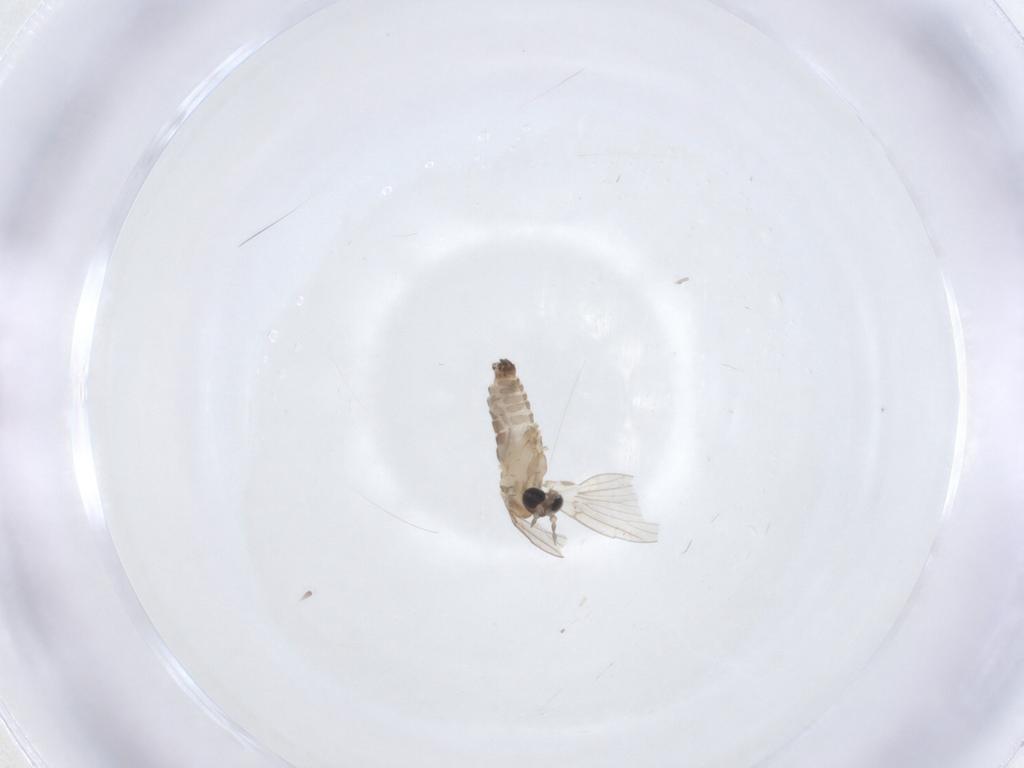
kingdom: Animalia
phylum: Arthropoda
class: Insecta
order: Diptera
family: Psychodidae
